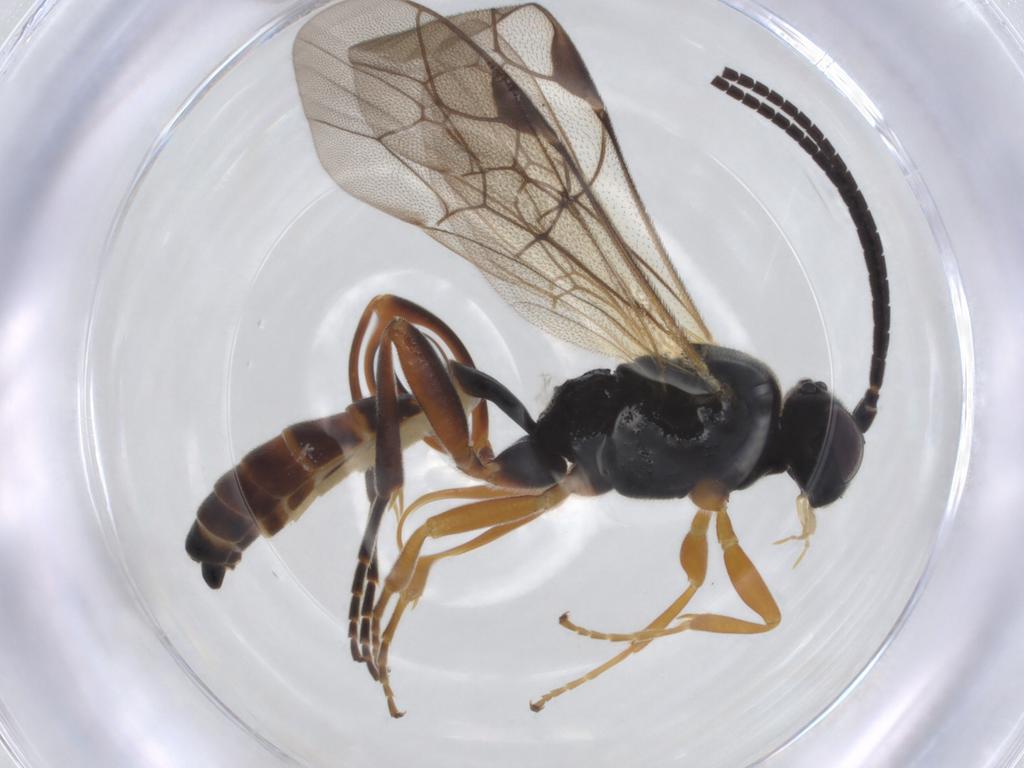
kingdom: Animalia
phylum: Arthropoda
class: Insecta
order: Hymenoptera
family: Ichneumonidae
